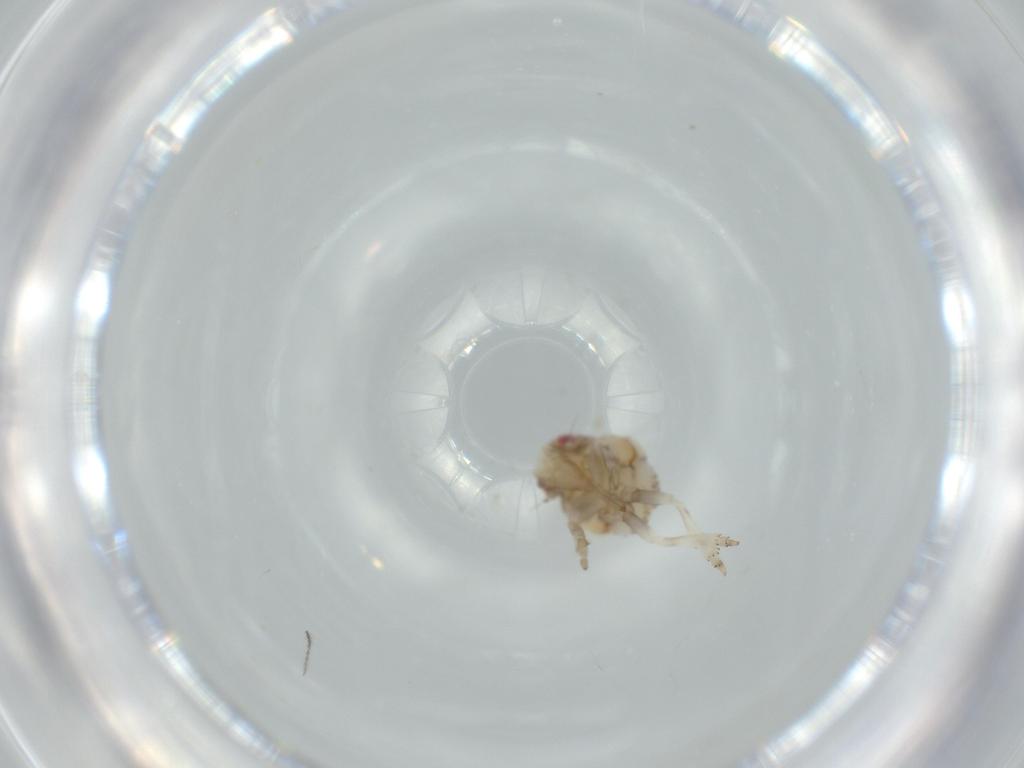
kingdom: Animalia
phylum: Arthropoda
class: Insecta
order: Hemiptera
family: Acanaloniidae
